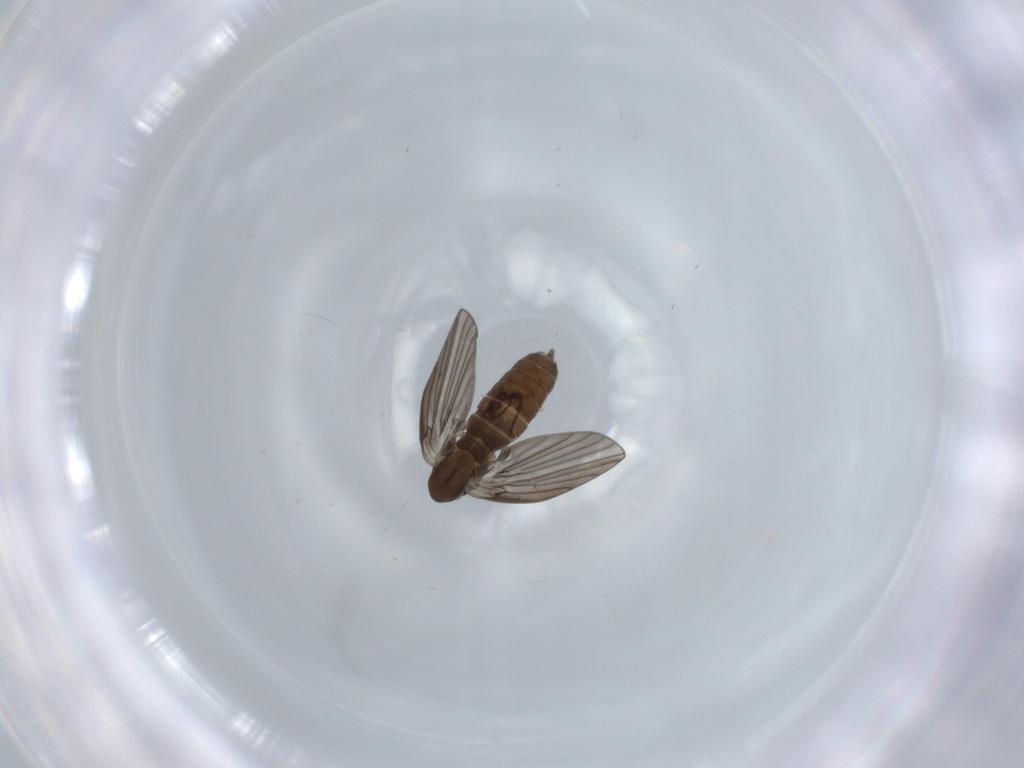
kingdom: Animalia
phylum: Arthropoda
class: Insecta
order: Diptera
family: Psychodidae
